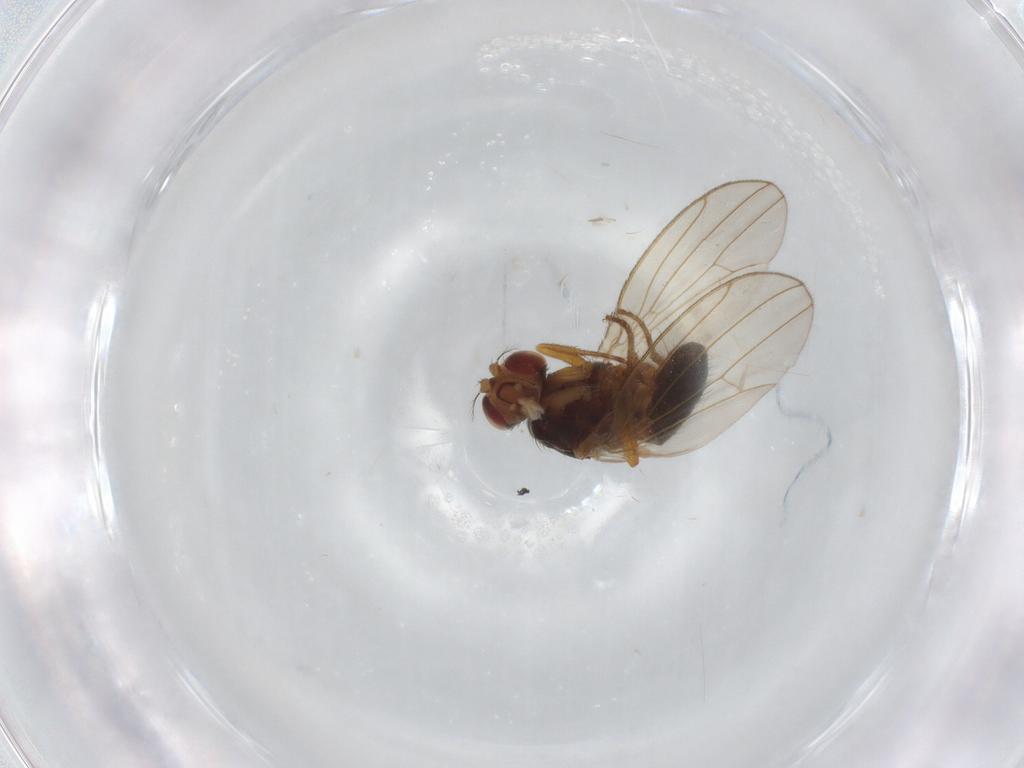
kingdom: Animalia
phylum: Arthropoda
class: Insecta
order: Diptera
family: Drosophilidae
